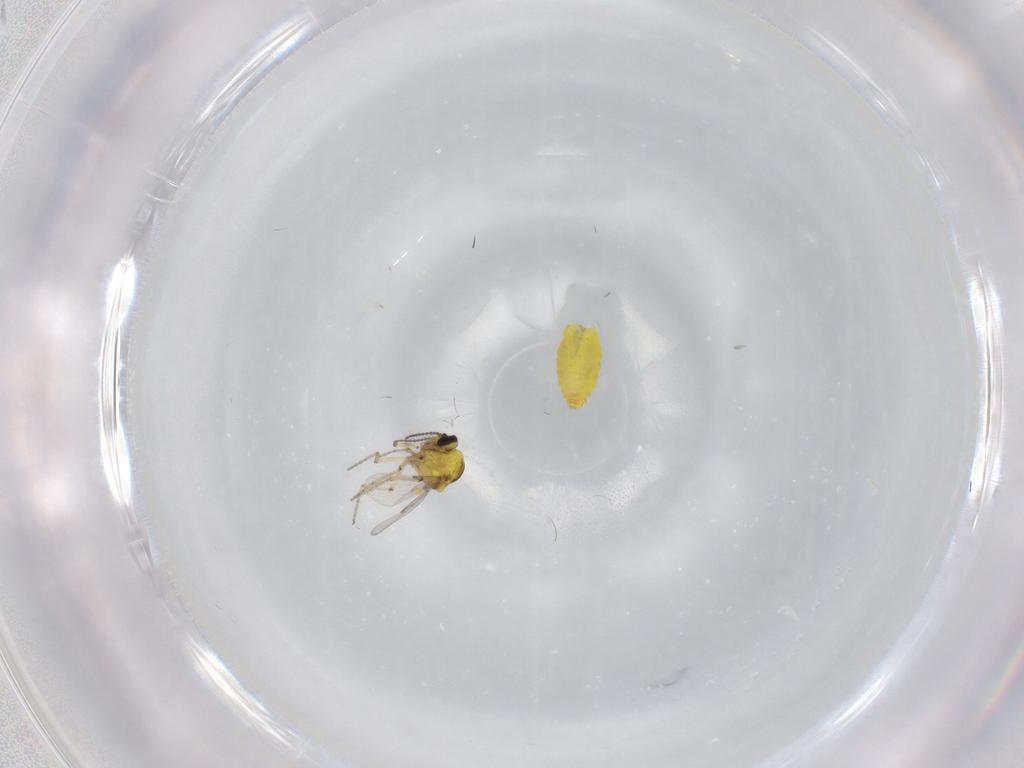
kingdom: Animalia
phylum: Arthropoda
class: Insecta
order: Diptera
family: Ceratopogonidae
